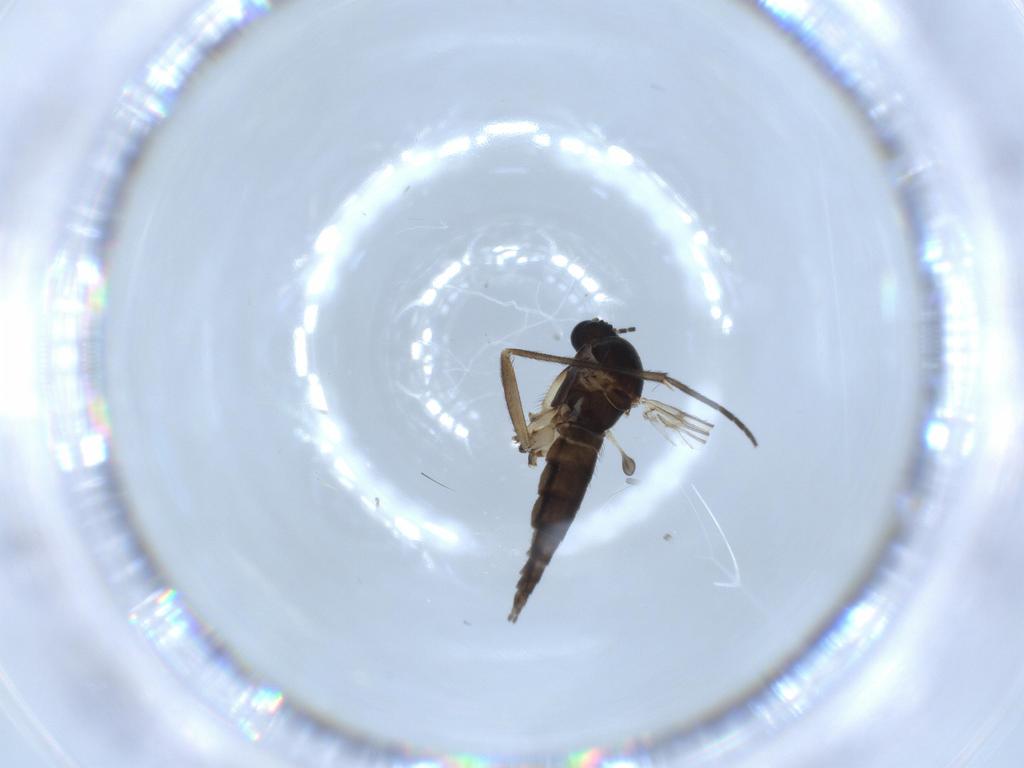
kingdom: Animalia
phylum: Arthropoda
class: Insecta
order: Diptera
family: Sciaridae
